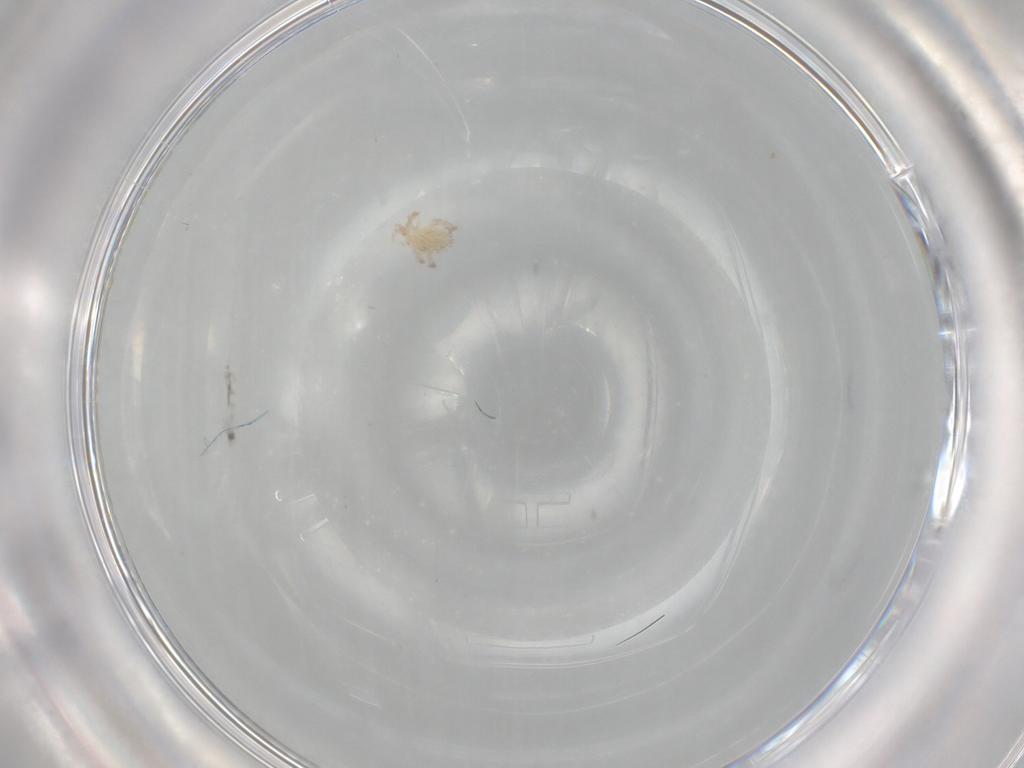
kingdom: Animalia
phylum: Arthropoda
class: Arachnida
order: Trombidiformes
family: Erythraeidae
